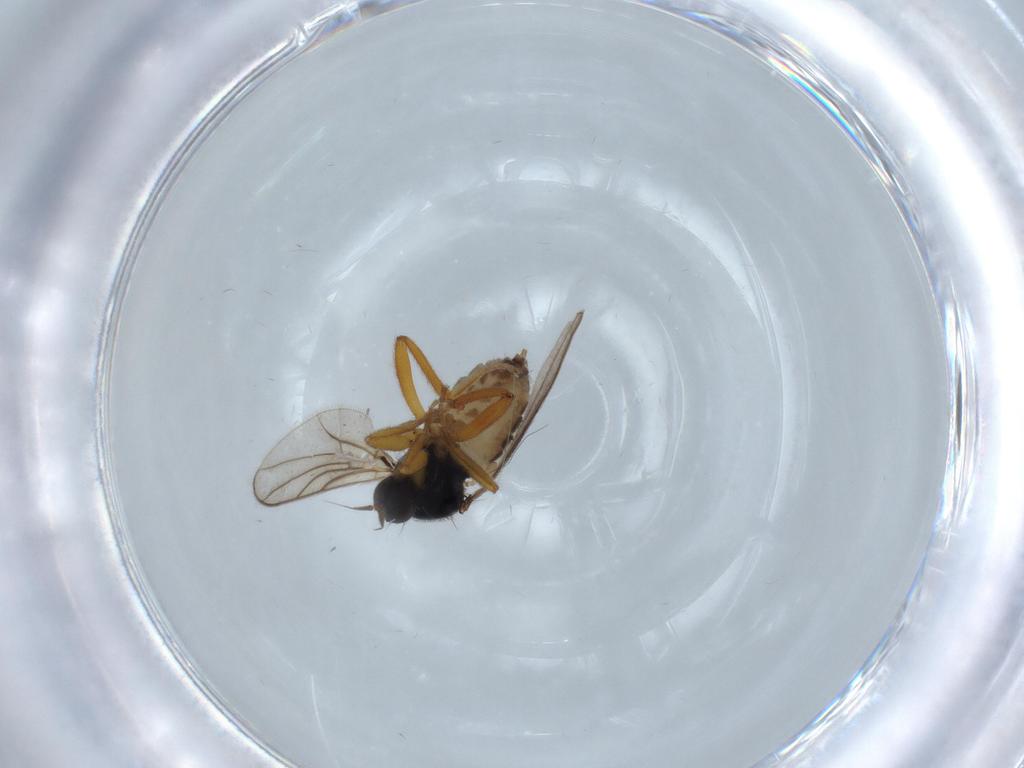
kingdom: Animalia
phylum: Arthropoda
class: Insecta
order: Diptera
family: Hybotidae
